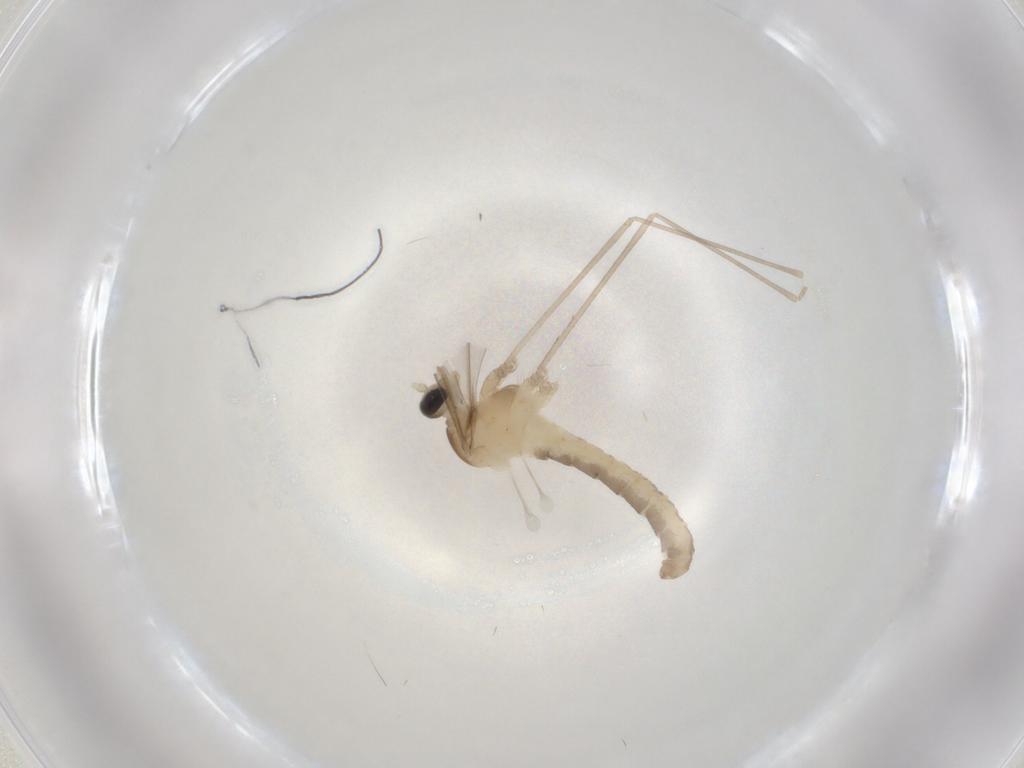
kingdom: Animalia
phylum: Arthropoda
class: Insecta
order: Diptera
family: Cecidomyiidae
